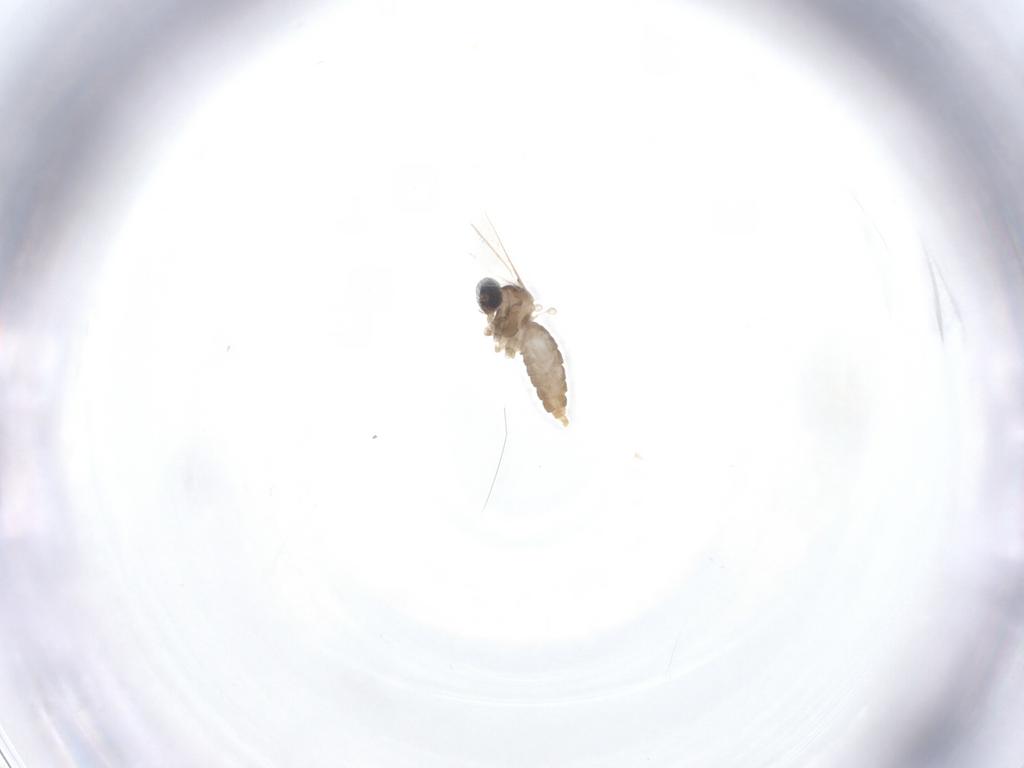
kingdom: Animalia
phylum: Arthropoda
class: Insecta
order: Diptera
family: Cecidomyiidae
